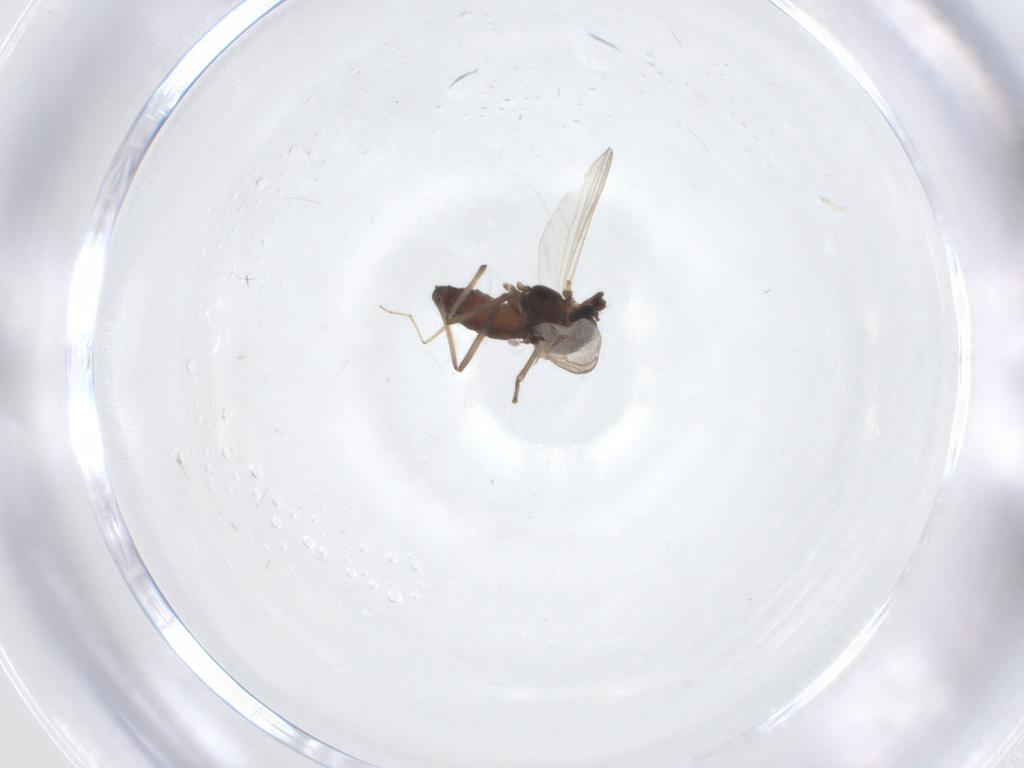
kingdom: Animalia
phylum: Arthropoda
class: Insecta
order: Diptera
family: Chironomidae
